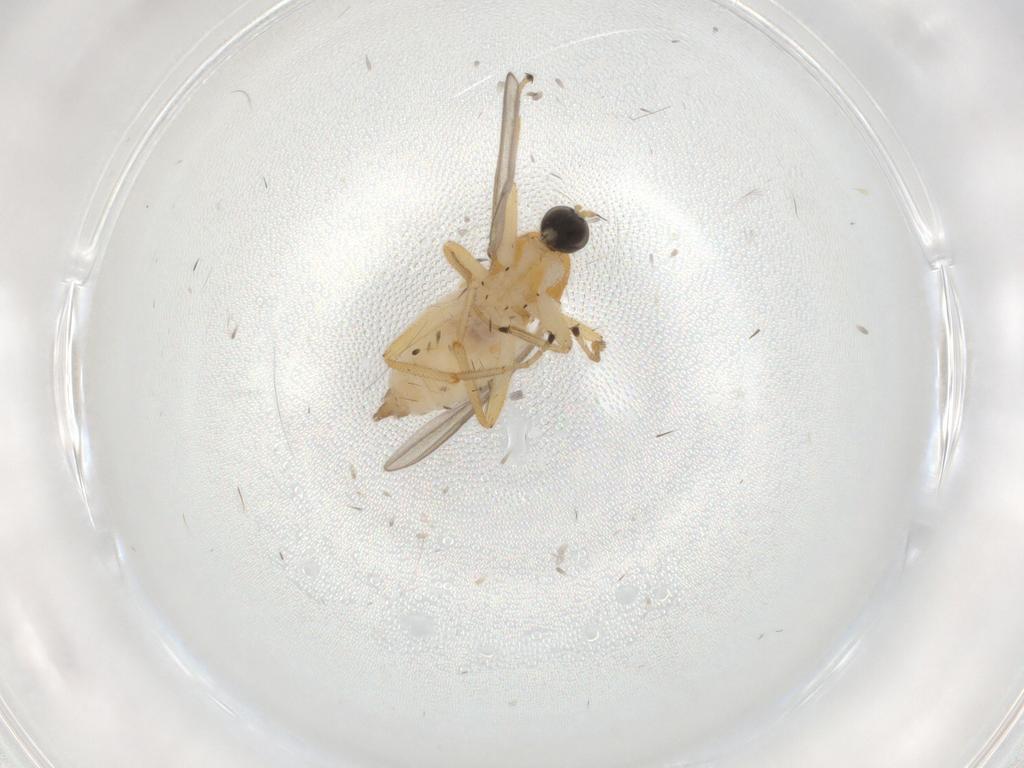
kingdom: Animalia
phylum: Arthropoda
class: Insecta
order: Diptera
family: Hybotidae
